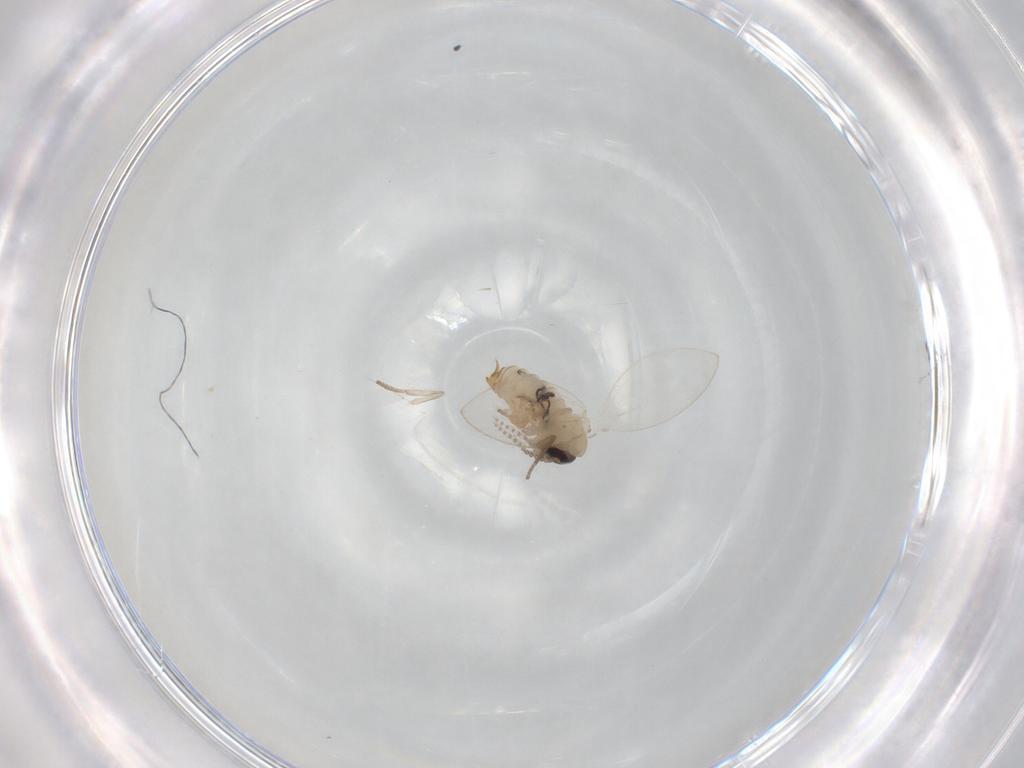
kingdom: Animalia
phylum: Arthropoda
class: Insecta
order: Diptera
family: Psychodidae
